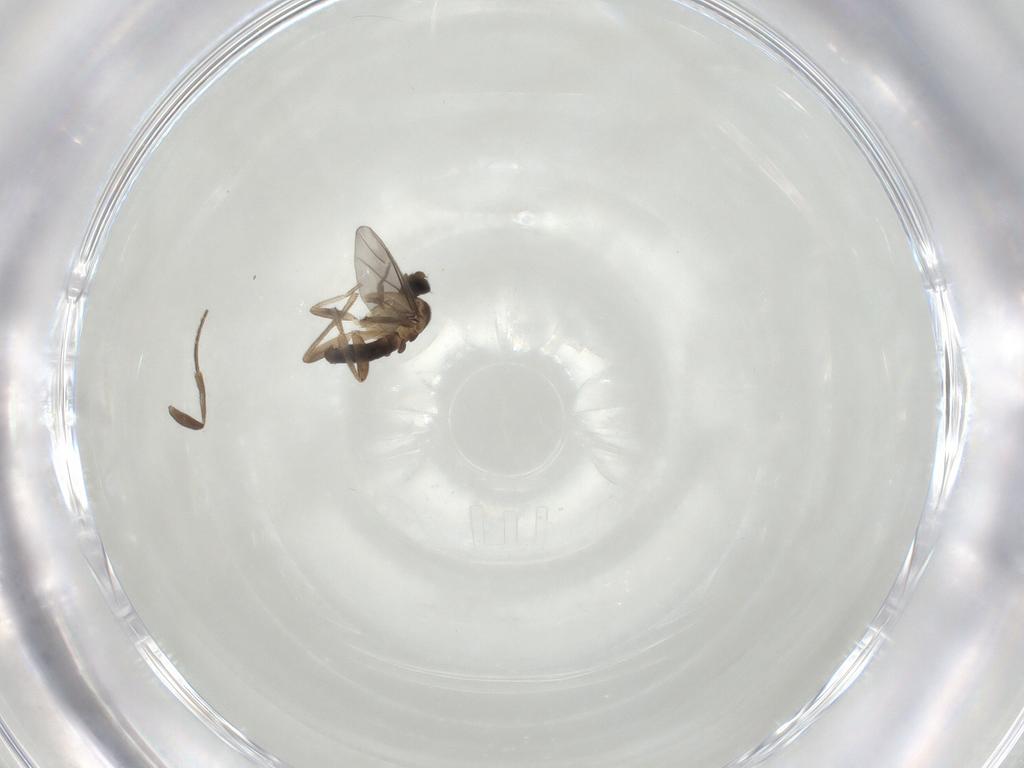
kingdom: Animalia
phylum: Arthropoda
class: Insecta
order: Diptera
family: Phoridae
